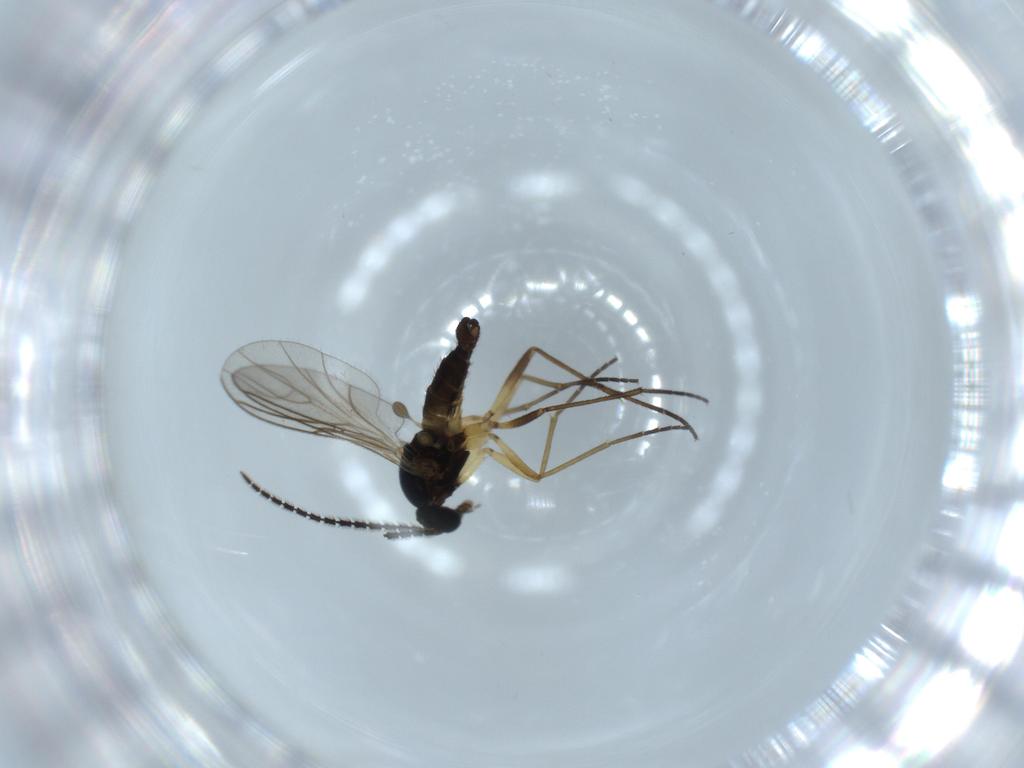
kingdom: Animalia
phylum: Arthropoda
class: Insecta
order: Diptera
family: Sciaridae
